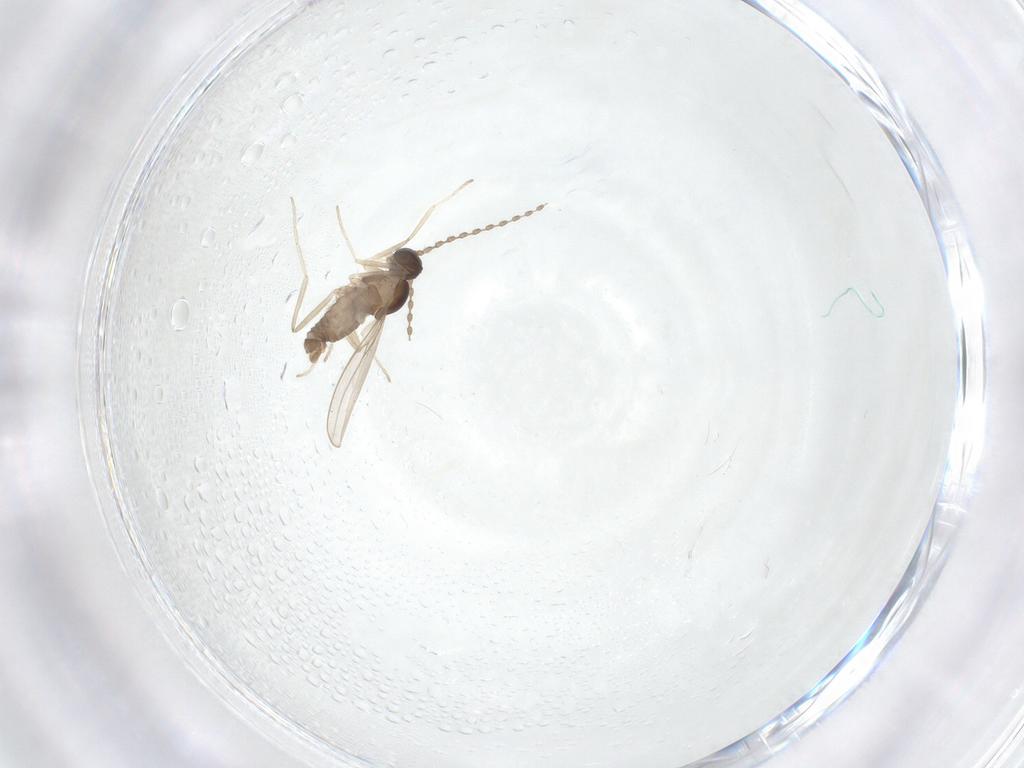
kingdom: Animalia
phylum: Arthropoda
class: Insecta
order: Diptera
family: Cecidomyiidae
